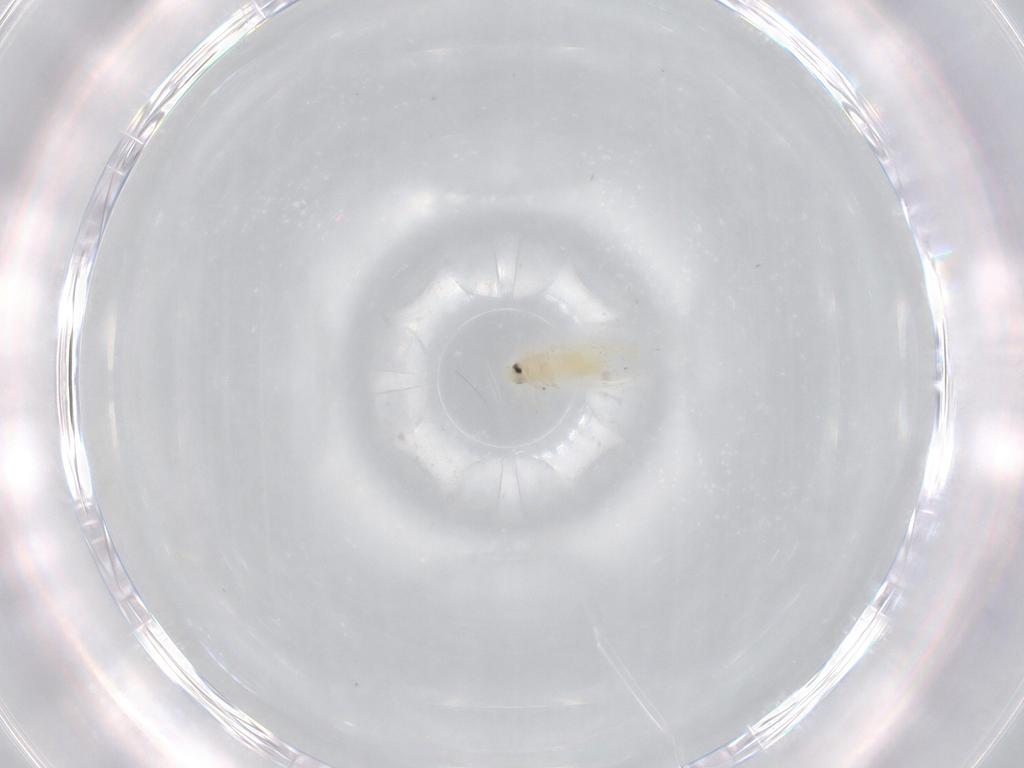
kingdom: Animalia
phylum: Arthropoda
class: Insecta
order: Hemiptera
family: Aleyrodidae
